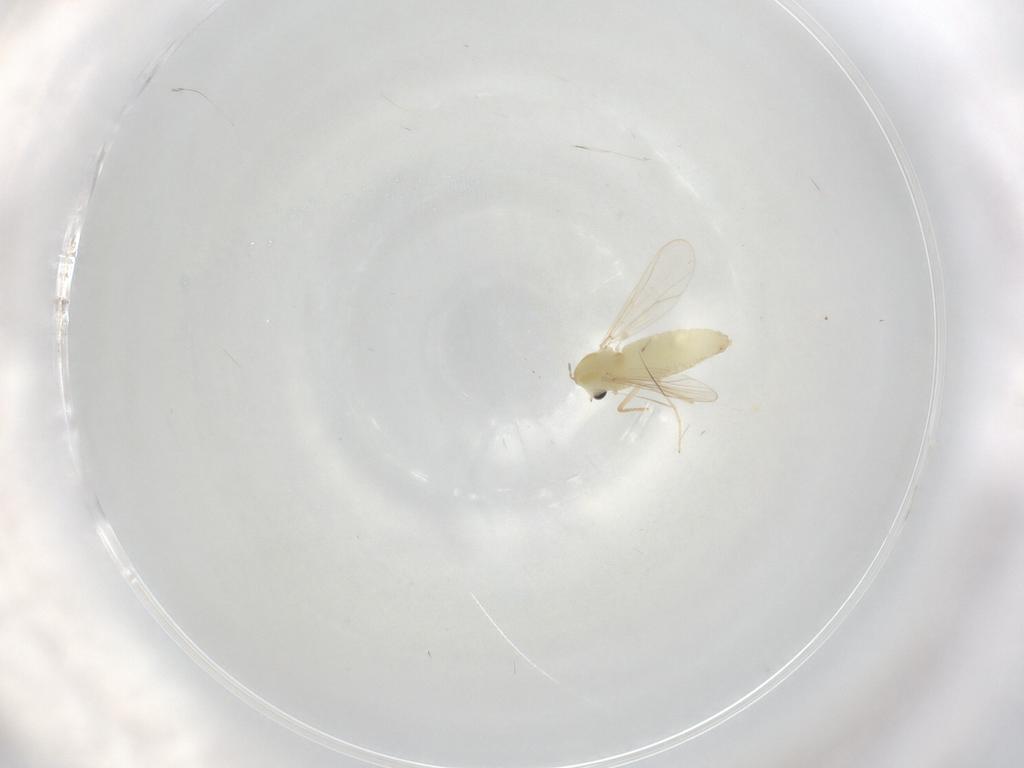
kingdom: Animalia
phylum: Arthropoda
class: Insecta
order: Diptera
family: Chironomidae
